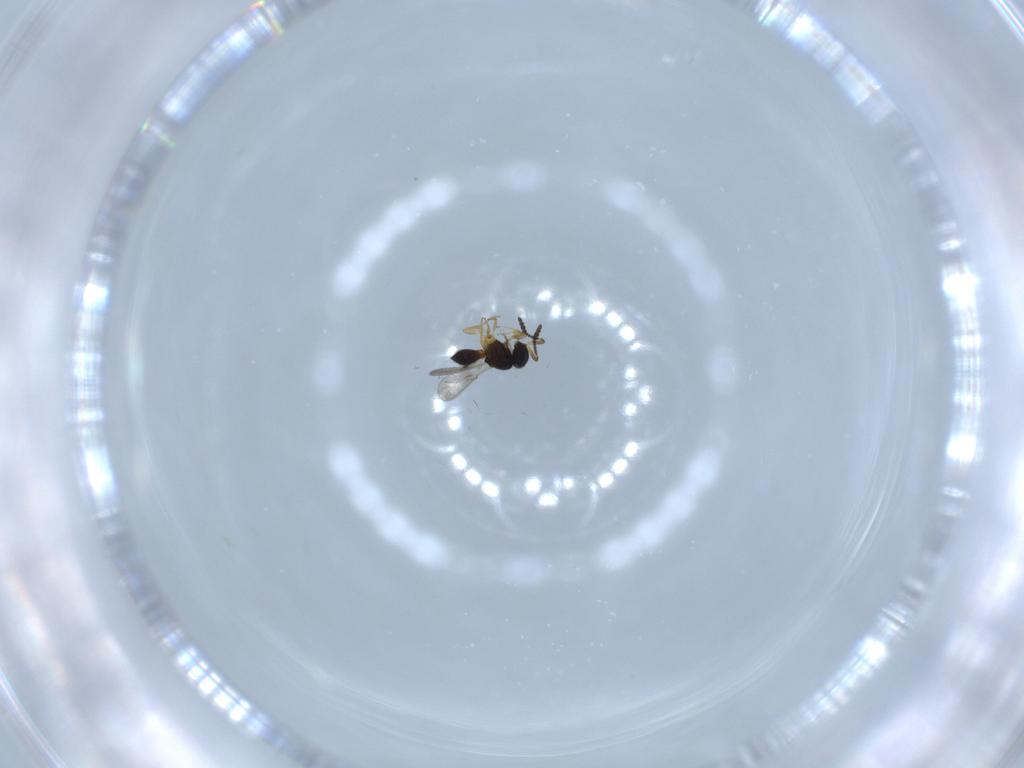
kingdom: Animalia
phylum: Arthropoda
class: Insecta
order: Hymenoptera
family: Scelionidae
